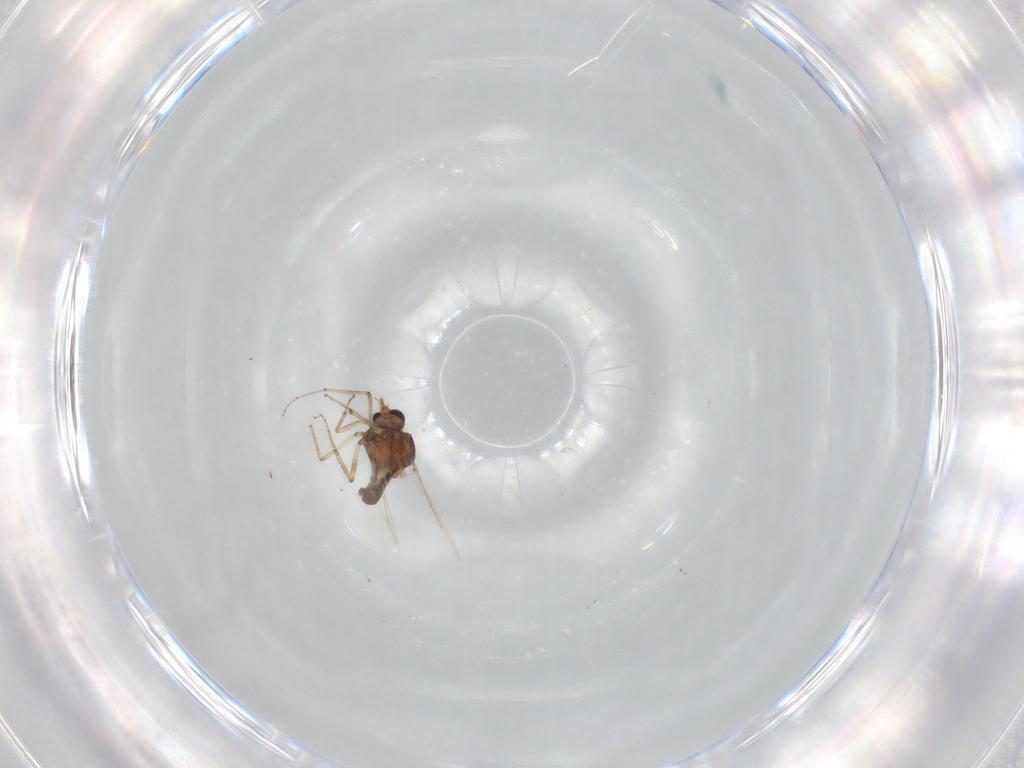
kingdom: Animalia
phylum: Arthropoda
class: Insecta
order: Diptera
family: Ceratopogonidae
